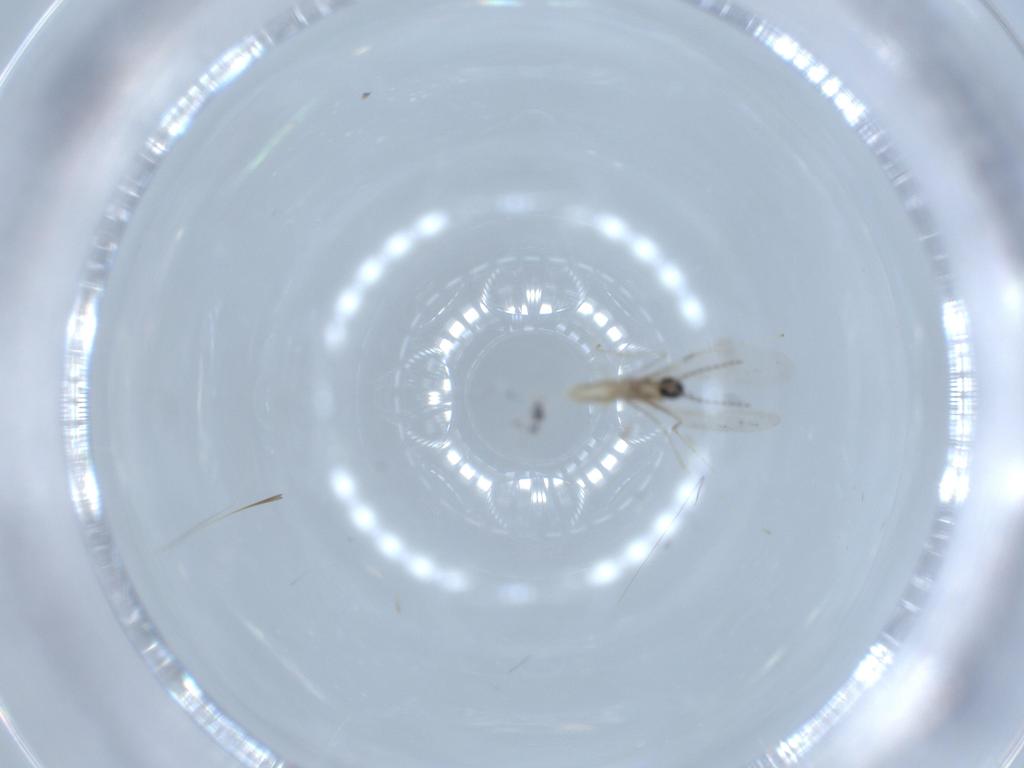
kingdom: Animalia
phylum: Arthropoda
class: Insecta
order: Diptera
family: Cecidomyiidae
